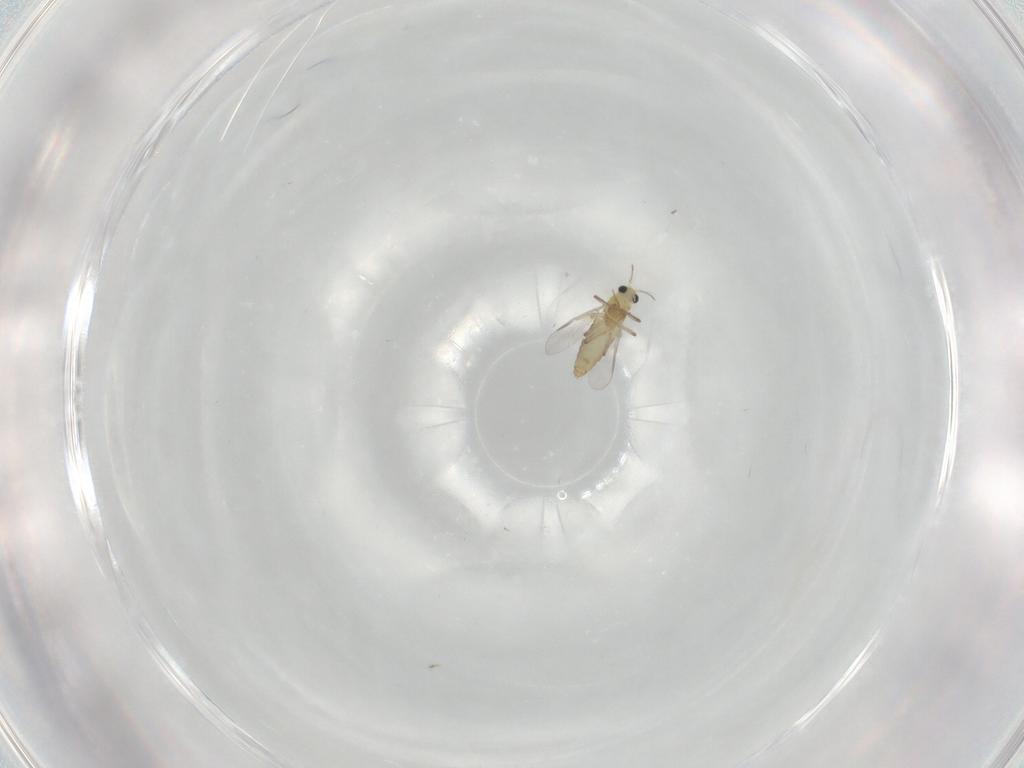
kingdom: Animalia
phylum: Arthropoda
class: Insecta
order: Diptera
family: Chironomidae
